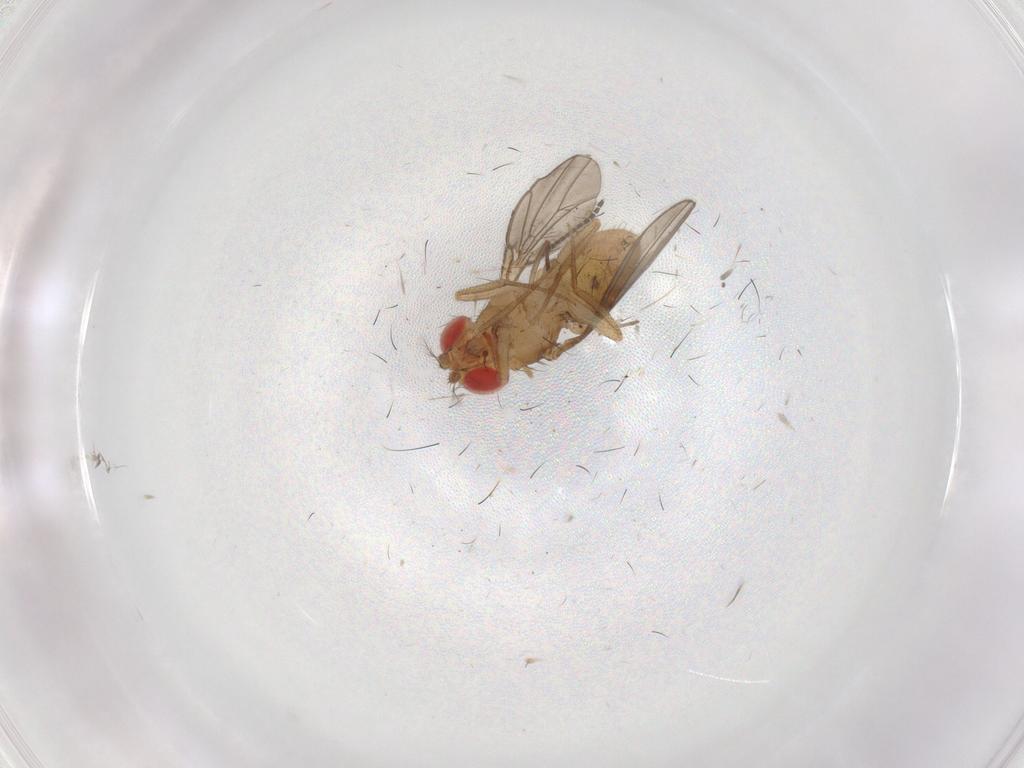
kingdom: Animalia
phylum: Arthropoda
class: Insecta
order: Diptera
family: Drosophilidae
